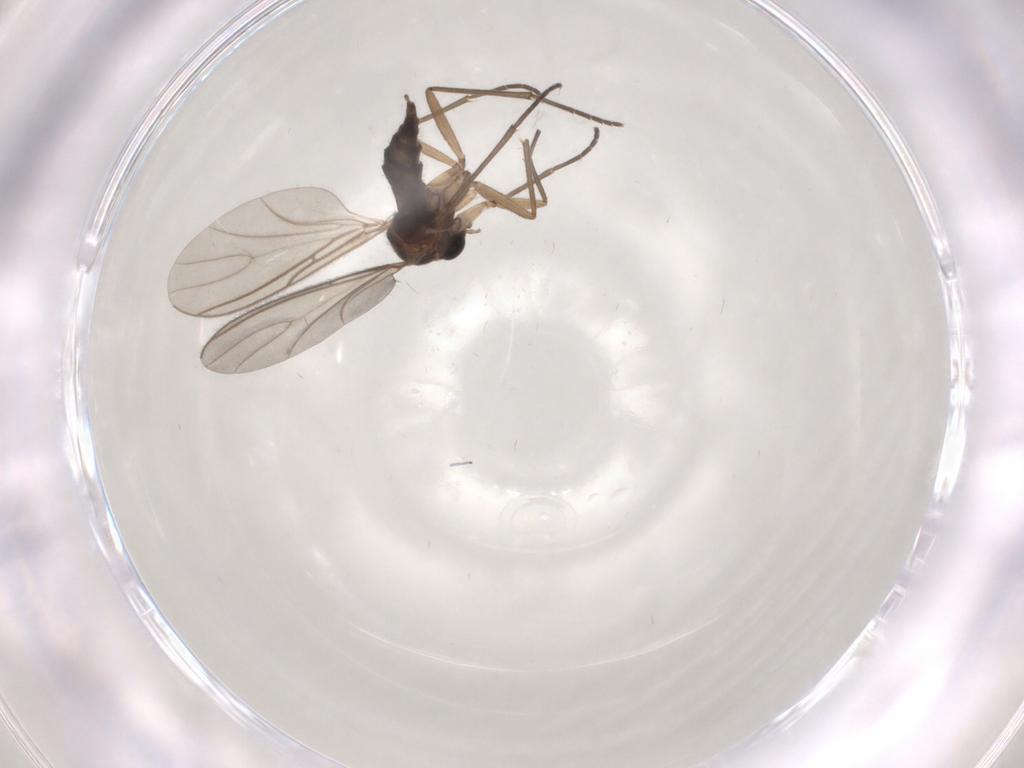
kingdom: Animalia
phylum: Arthropoda
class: Insecta
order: Diptera
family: Sciaridae
